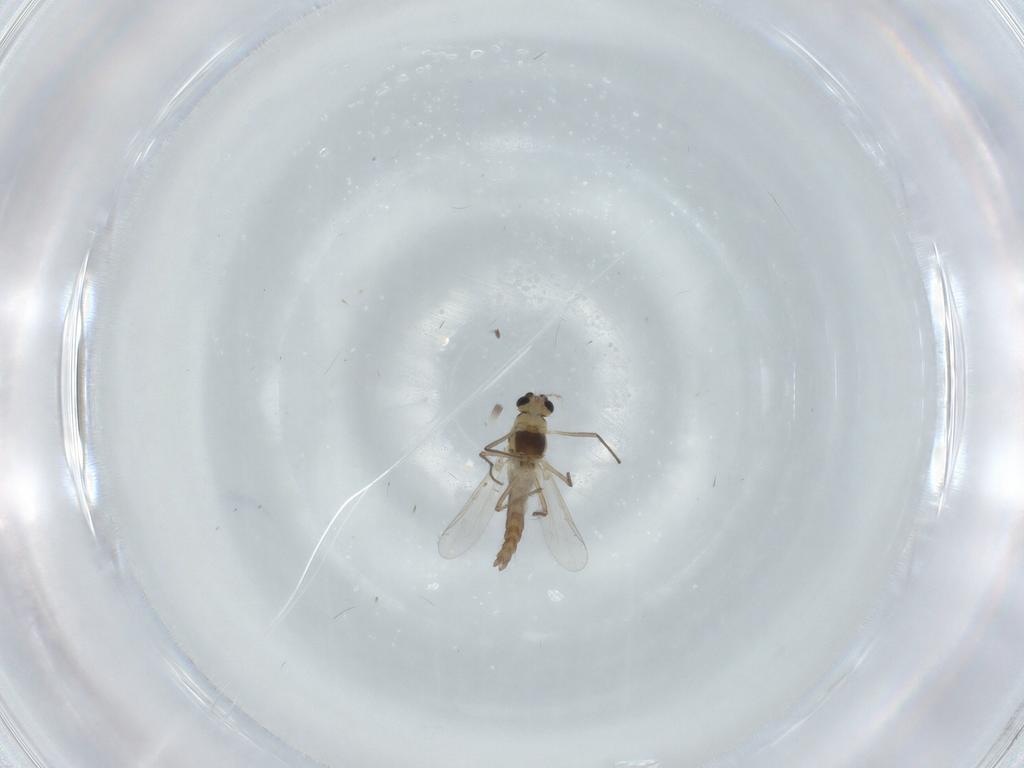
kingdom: Animalia
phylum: Arthropoda
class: Insecta
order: Diptera
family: Chironomidae
